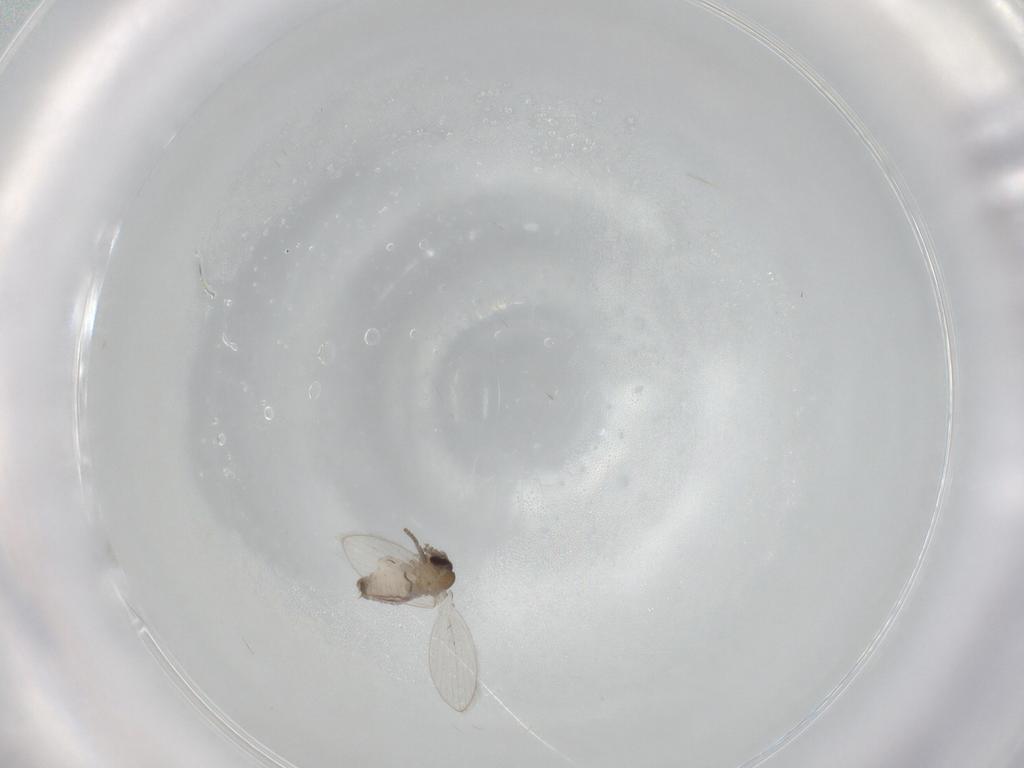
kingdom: Animalia
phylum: Arthropoda
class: Insecta
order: Diptera
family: Psychodidae
